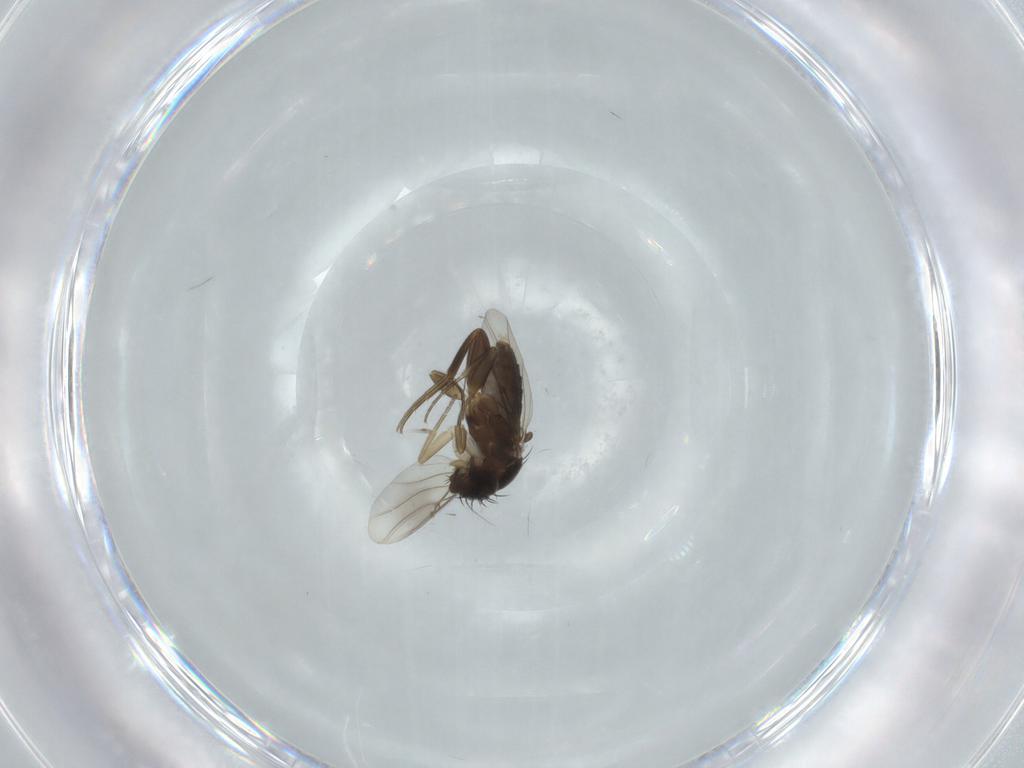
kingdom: Animalia
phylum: Arthropoda
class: Insecta
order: Diptera
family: Phoridae
